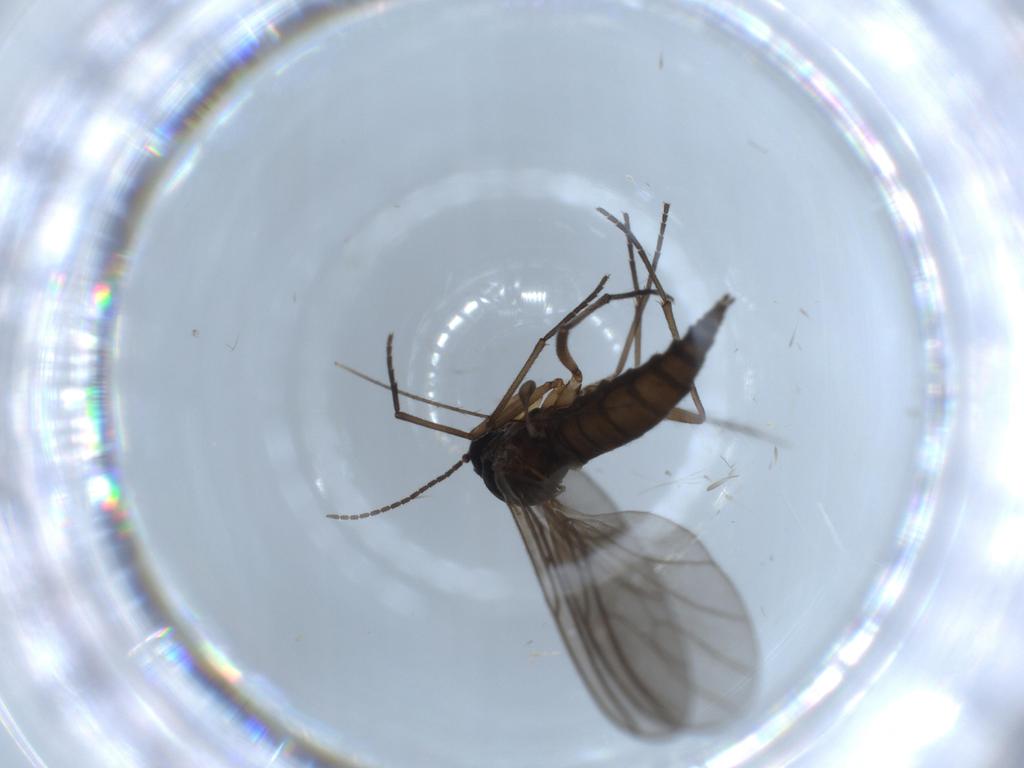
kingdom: Animalia
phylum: Arthropoda
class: Insecta
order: Diptera
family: Sciaridae
